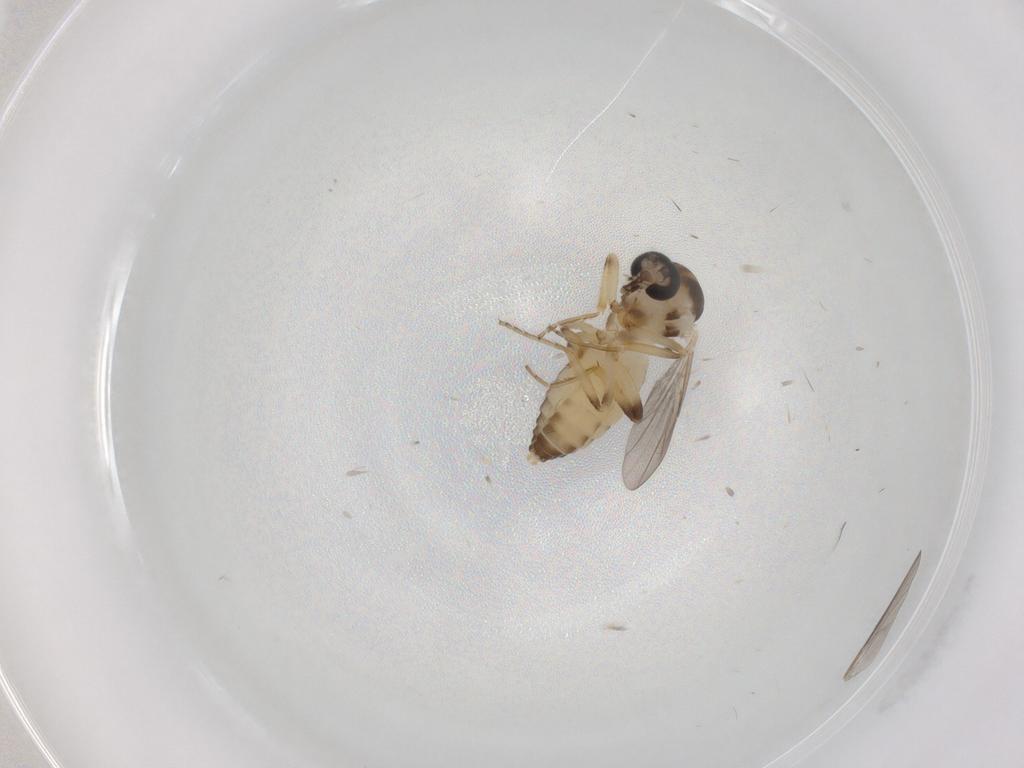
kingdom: Animalia
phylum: Arthropoda
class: Insecta
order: Diptera
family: Ceratopogonidae
